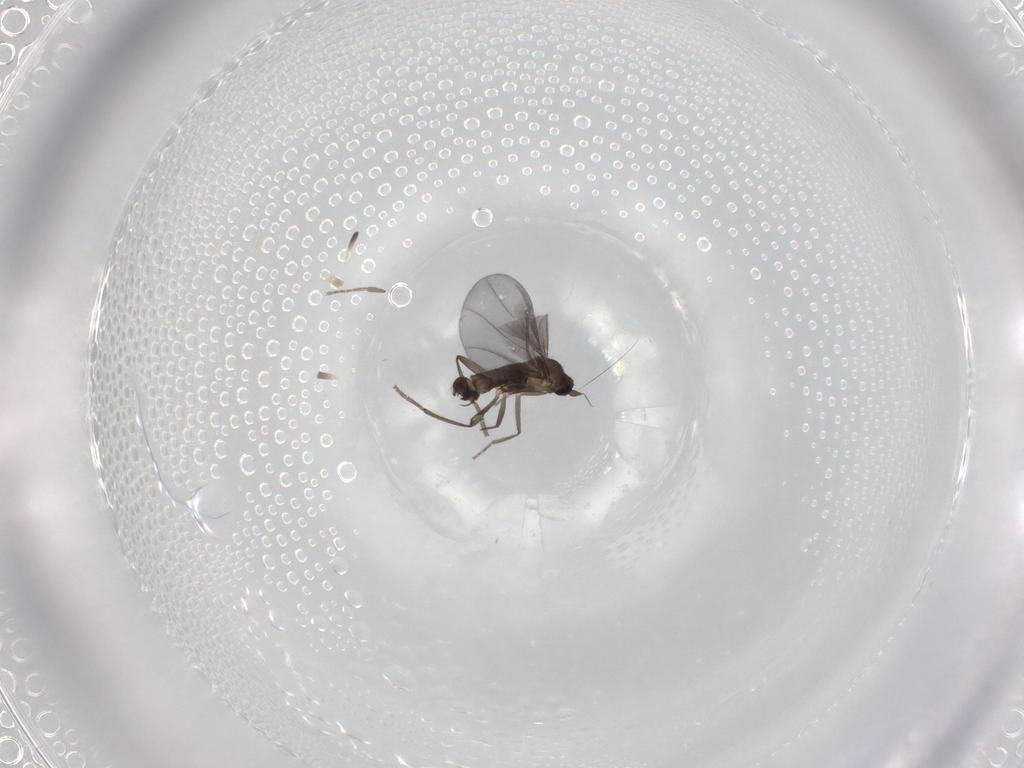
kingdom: Animalia
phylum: Arthropoda
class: Insecta
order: Diptera
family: Phoridae
